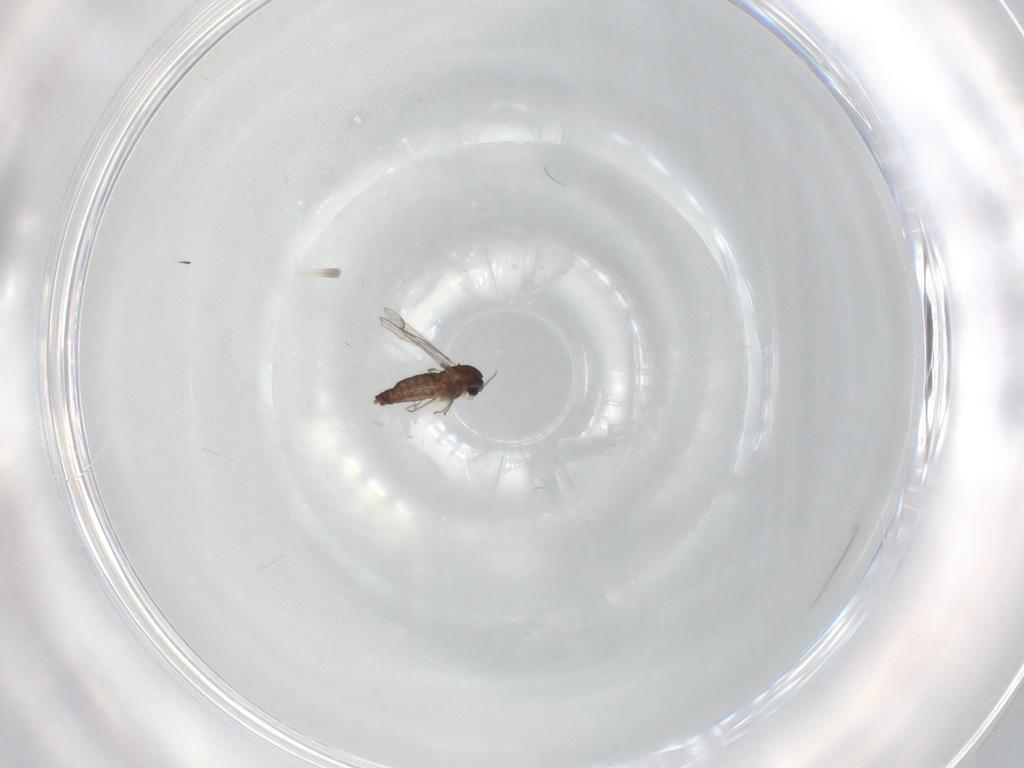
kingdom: Animalia
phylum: Arthropoda
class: Insecta
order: Diptera
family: Chironomidae
